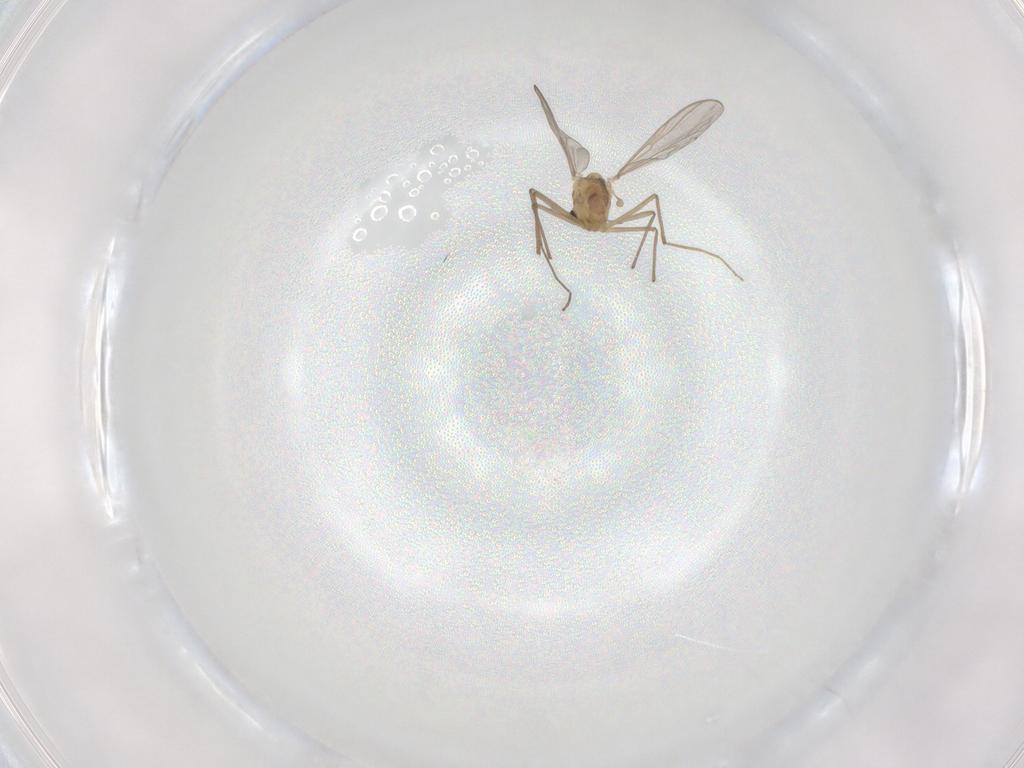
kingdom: Animalia
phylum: Arthropoda
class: Insecta
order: Diptera
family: Chironomidae
